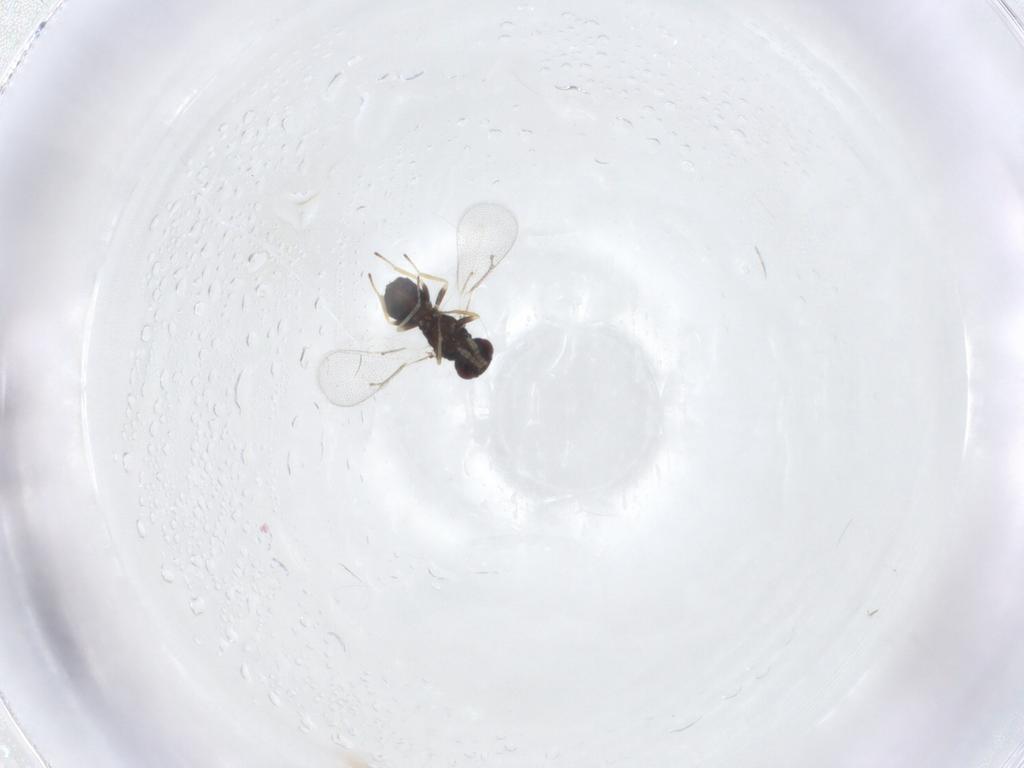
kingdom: Animalia
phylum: Arthropoda
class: Insecta
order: Hymenoptera
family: Eulophidae
